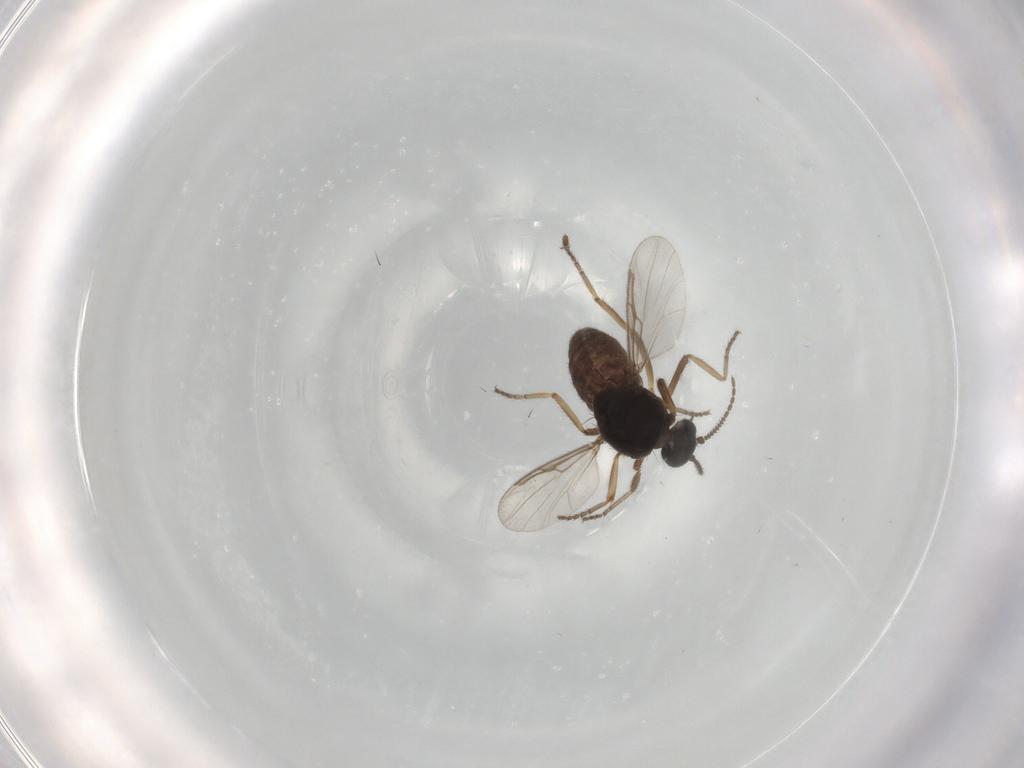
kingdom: Animalia
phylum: Arthropoda
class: Insecta
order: Diptera
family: Ceratopogonidae
